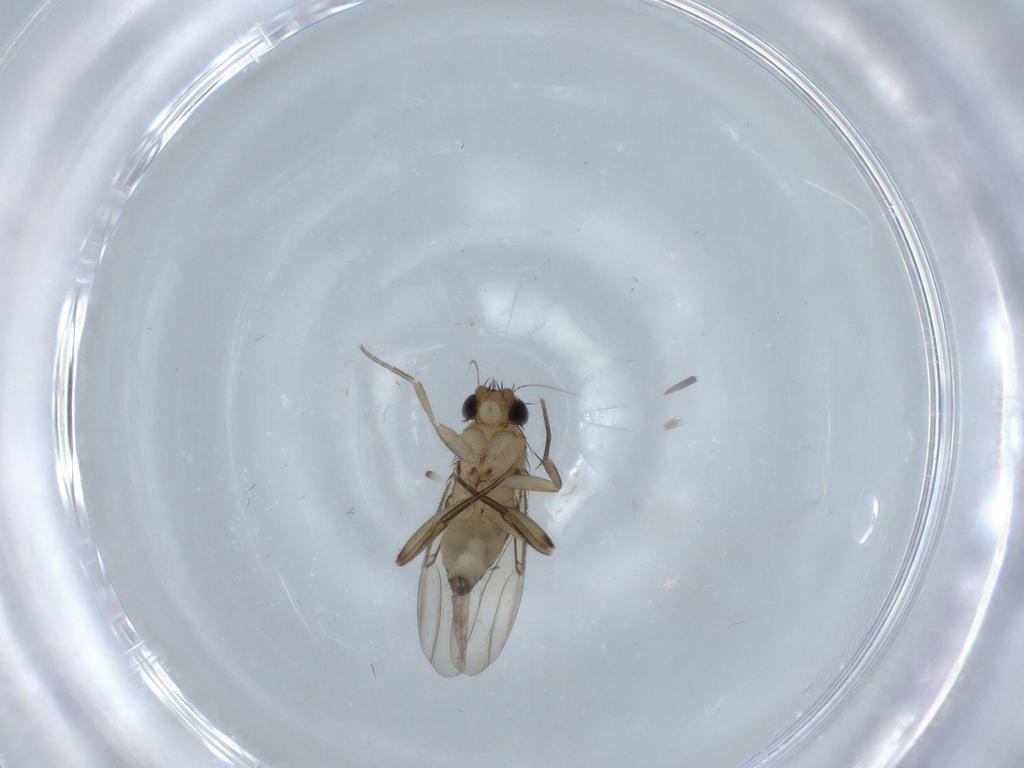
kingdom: Animalia
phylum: Arthropoda
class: Insecta
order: Diptera
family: Phoridae
